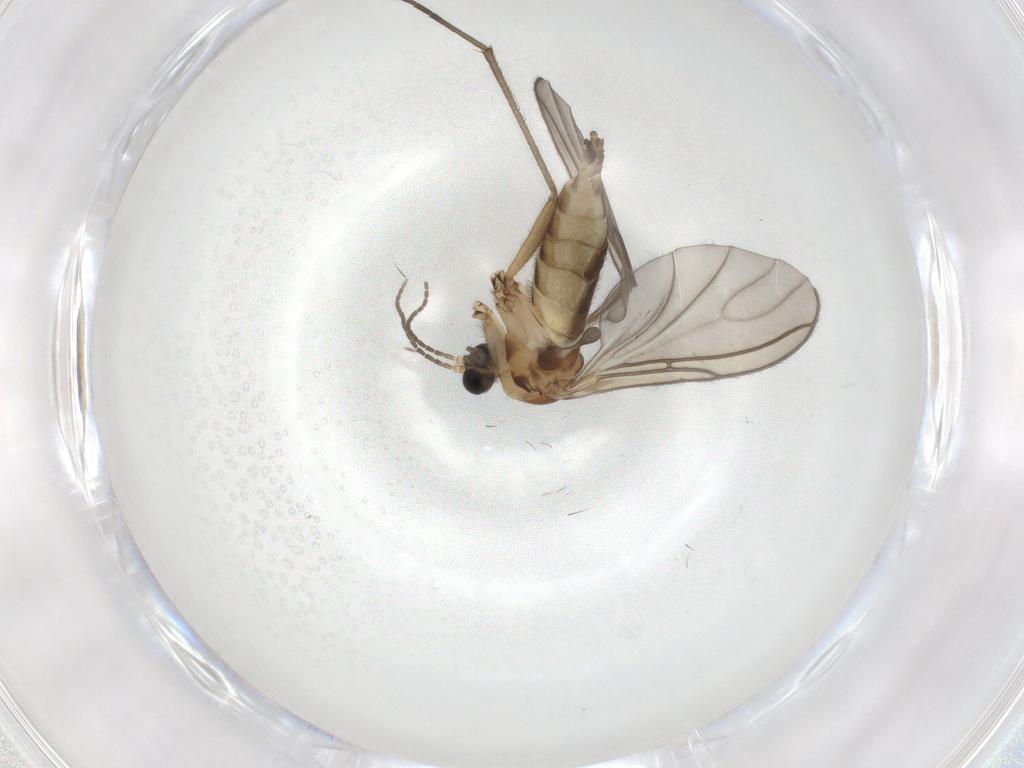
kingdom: Animalia
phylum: Arthropoda
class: Insecta
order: Diptera
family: Sciaridae
